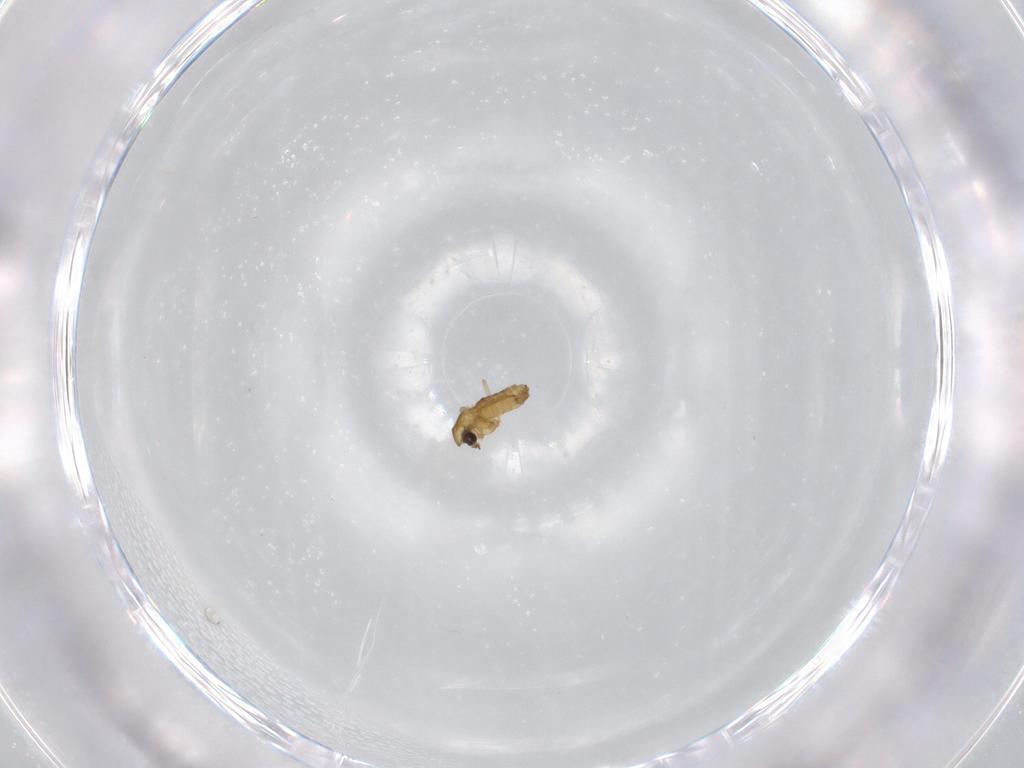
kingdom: Animalia
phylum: Arthropoda
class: Insecta
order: Diptera
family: Chironomidae
